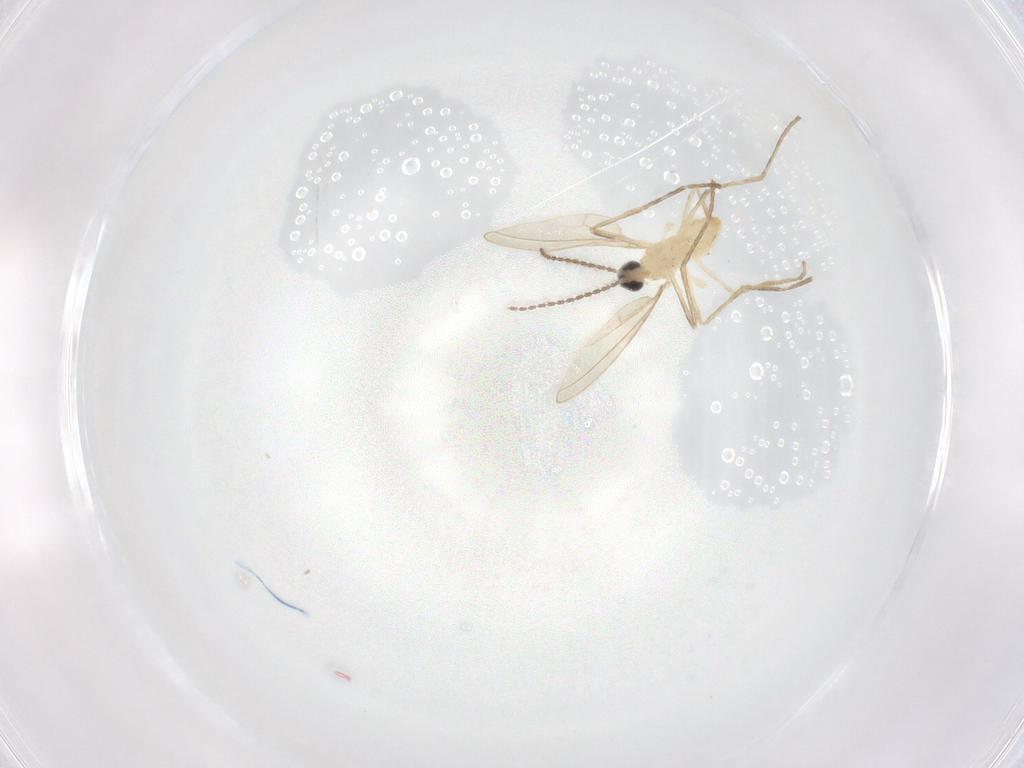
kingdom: Animalia
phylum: Arthropoda
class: Insecta
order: Diptera
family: Cecidomyiidae
